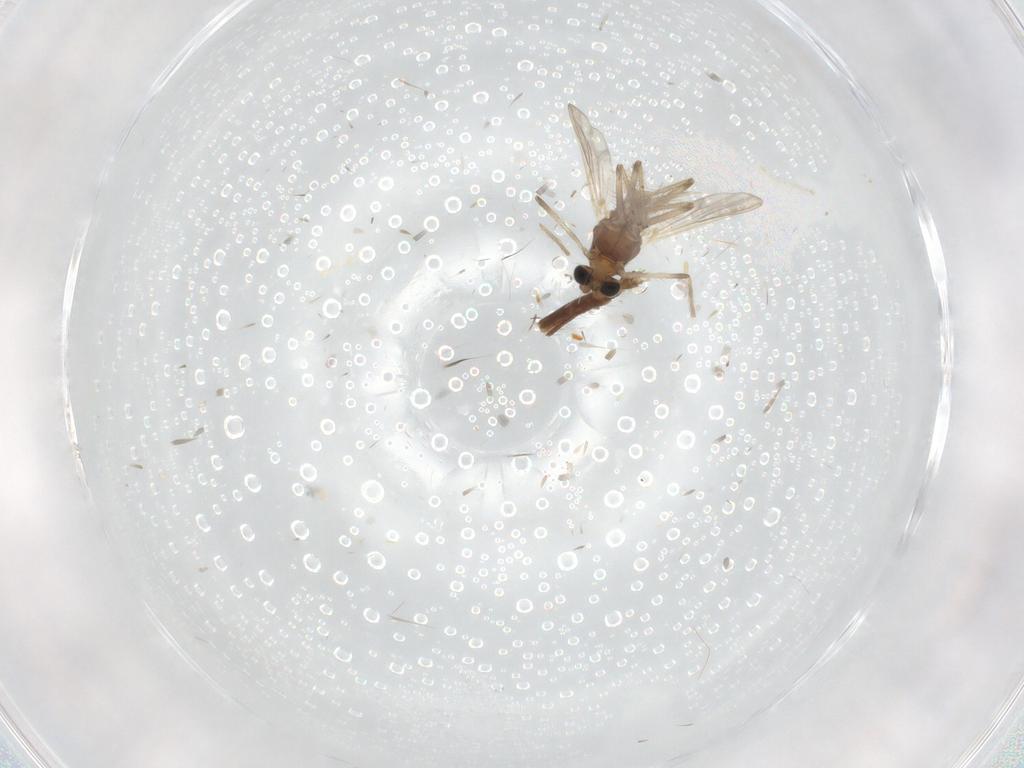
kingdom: Animalia
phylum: Arthropoda
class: Insecta
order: Diptera
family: Chironomidae
